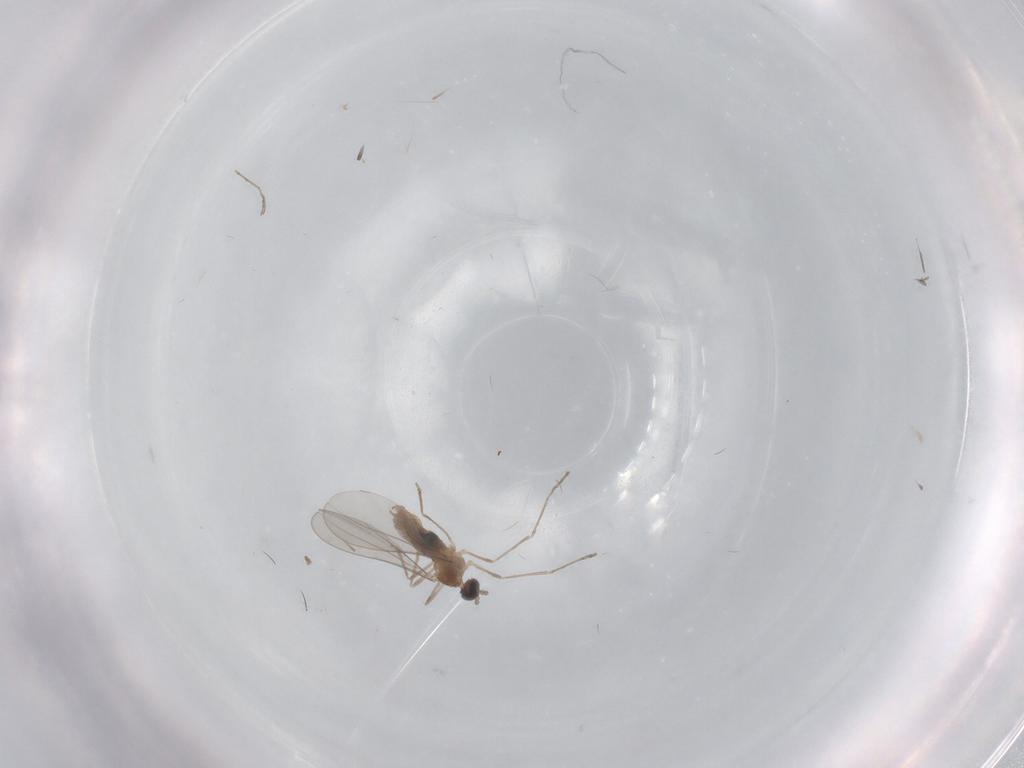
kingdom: Animalia
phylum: Arthropoda
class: Insecta
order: Diptera
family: Cecidomyiidae
